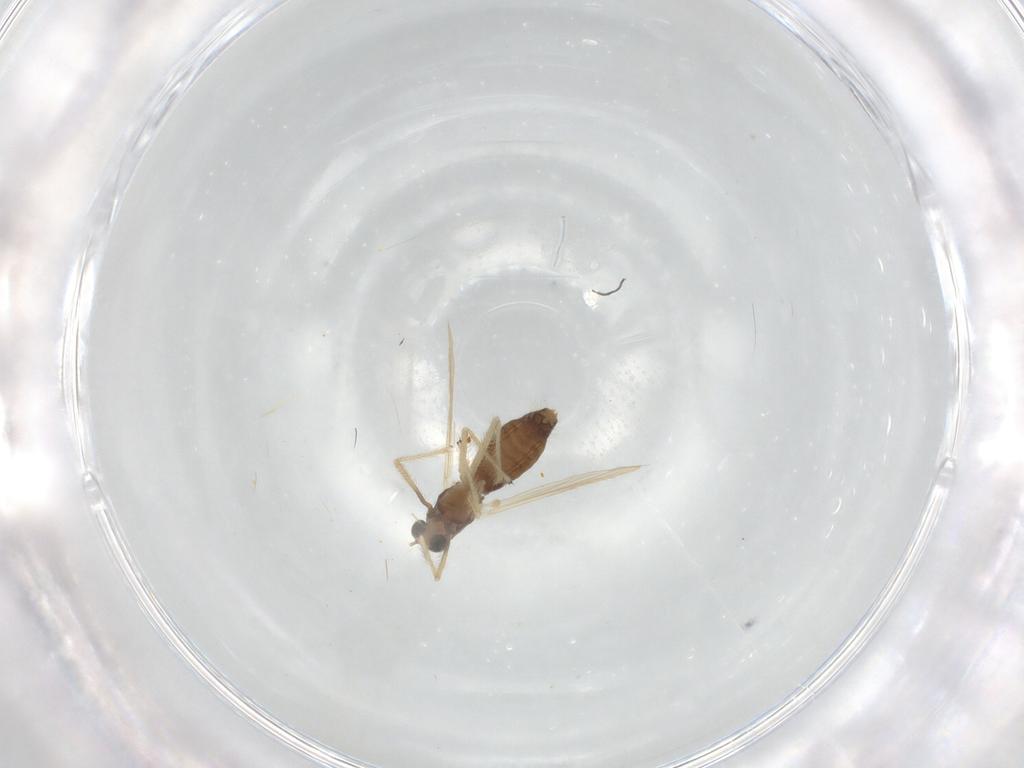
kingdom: Animalia
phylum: Arthropoda
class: Insecta
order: Diptera
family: Chironomidae
